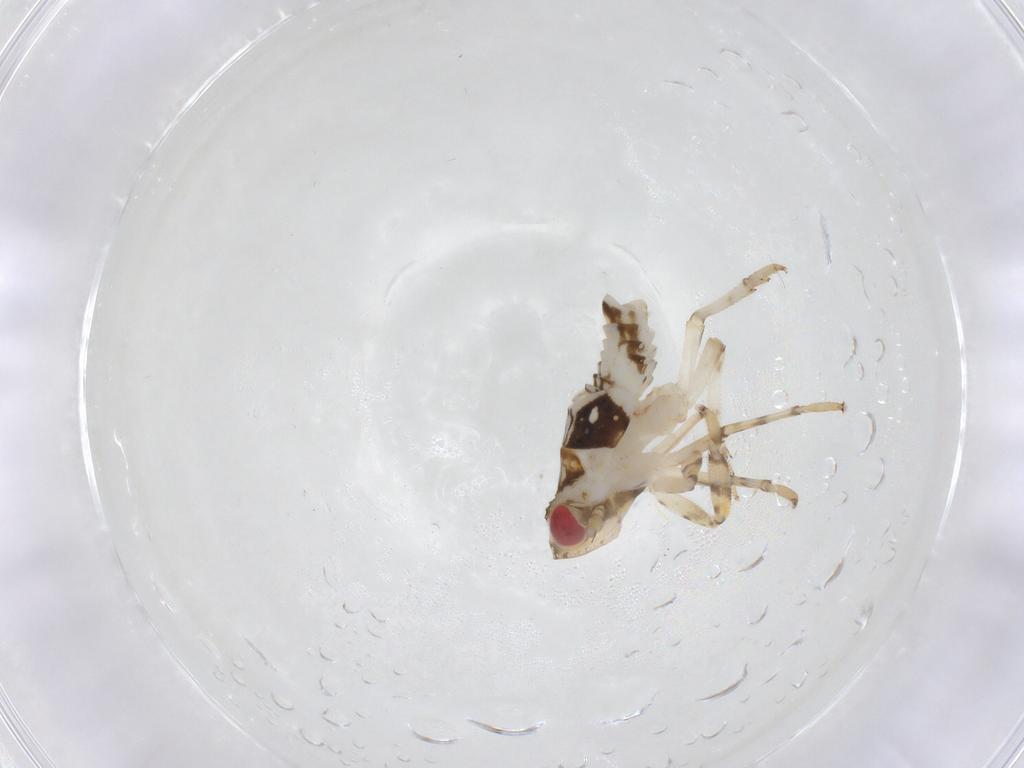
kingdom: Animalia
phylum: Arthropoda
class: Insecta
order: Hemiptera
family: Issidae
